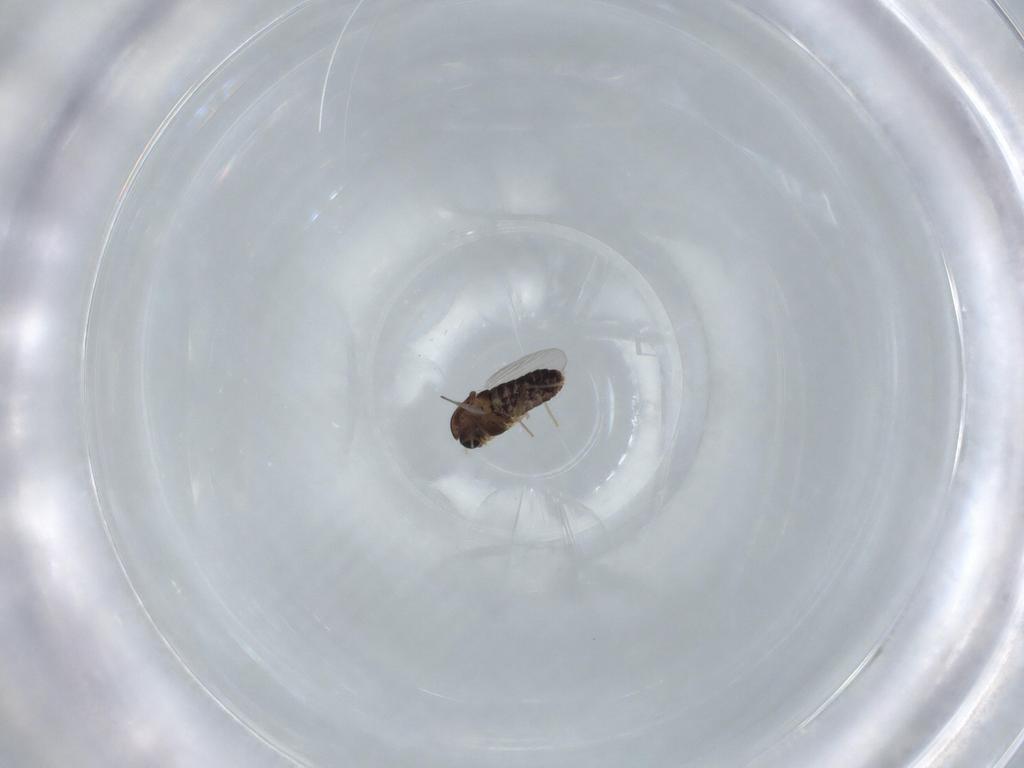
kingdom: Animalia
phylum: Arthropoda
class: Insecta
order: Diptera
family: Chironomidae
